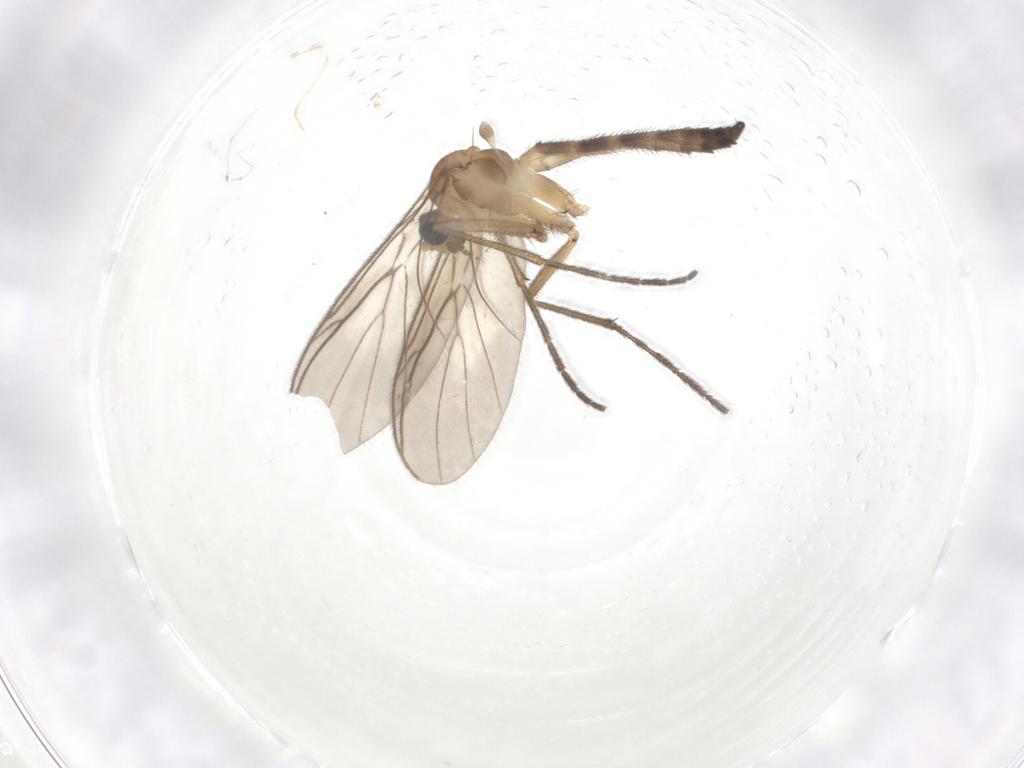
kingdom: Animalia
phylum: Arthropoda
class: Insecta
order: Diptera
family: Keroplatidae
